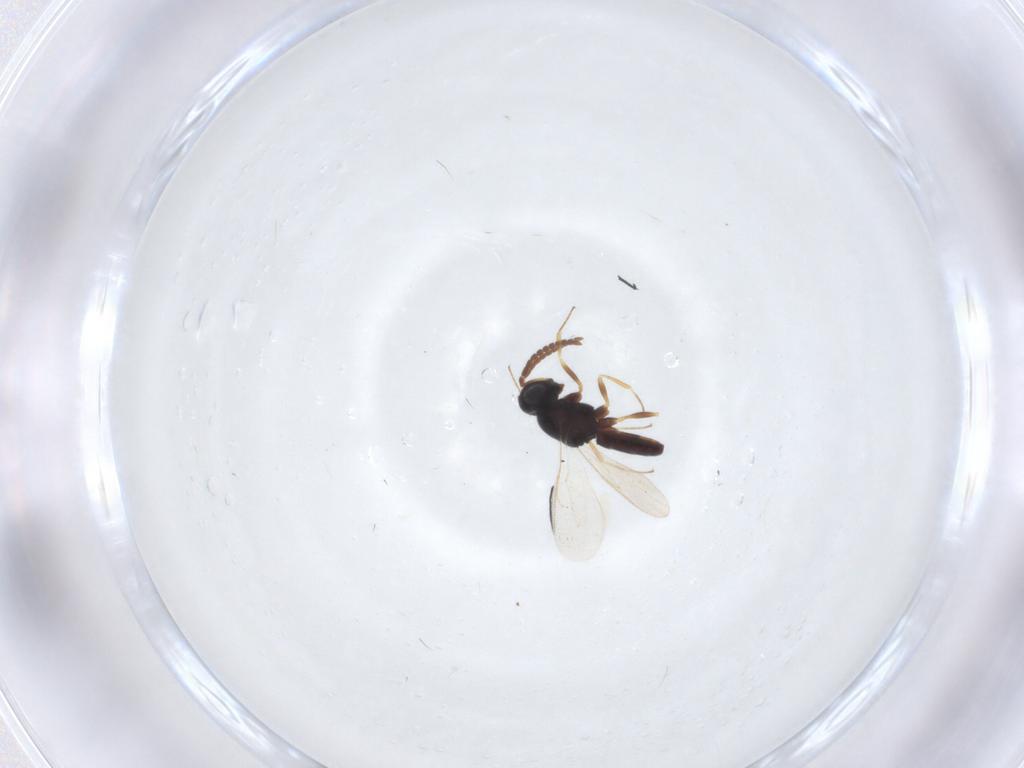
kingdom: Animalia
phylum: Arthropoda
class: Insecta
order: Hymenoptera
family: Scelionidae
